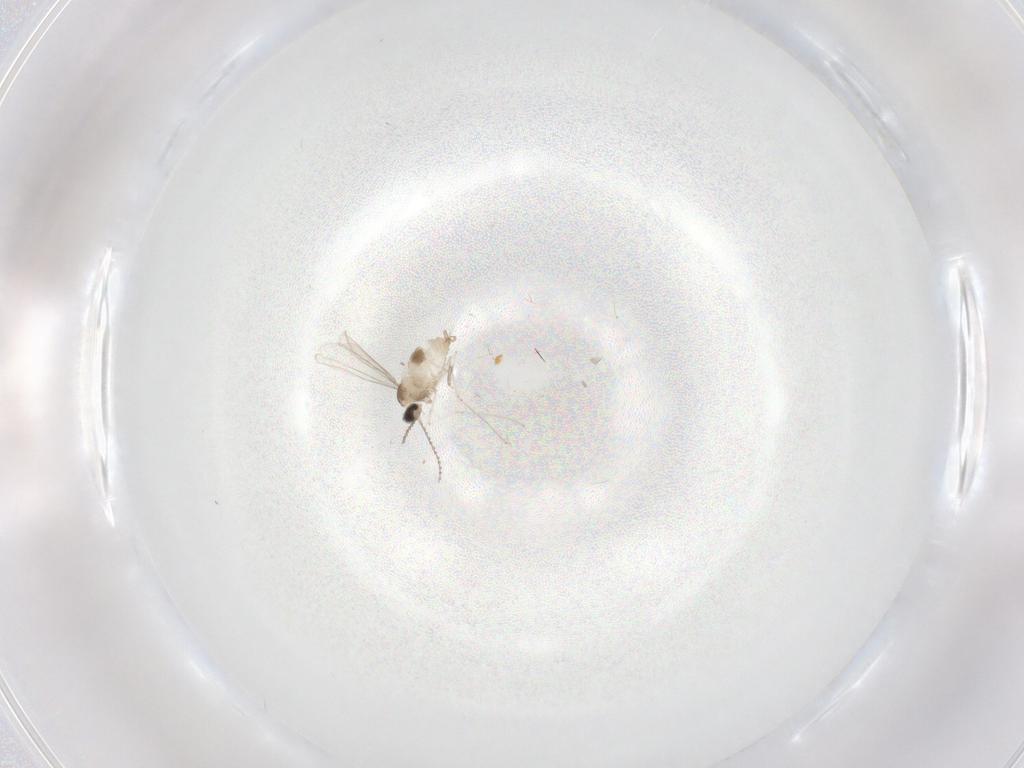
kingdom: Animalia
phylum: Arthropoda
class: Insecta
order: Diptera
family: Cecidomyiidae
